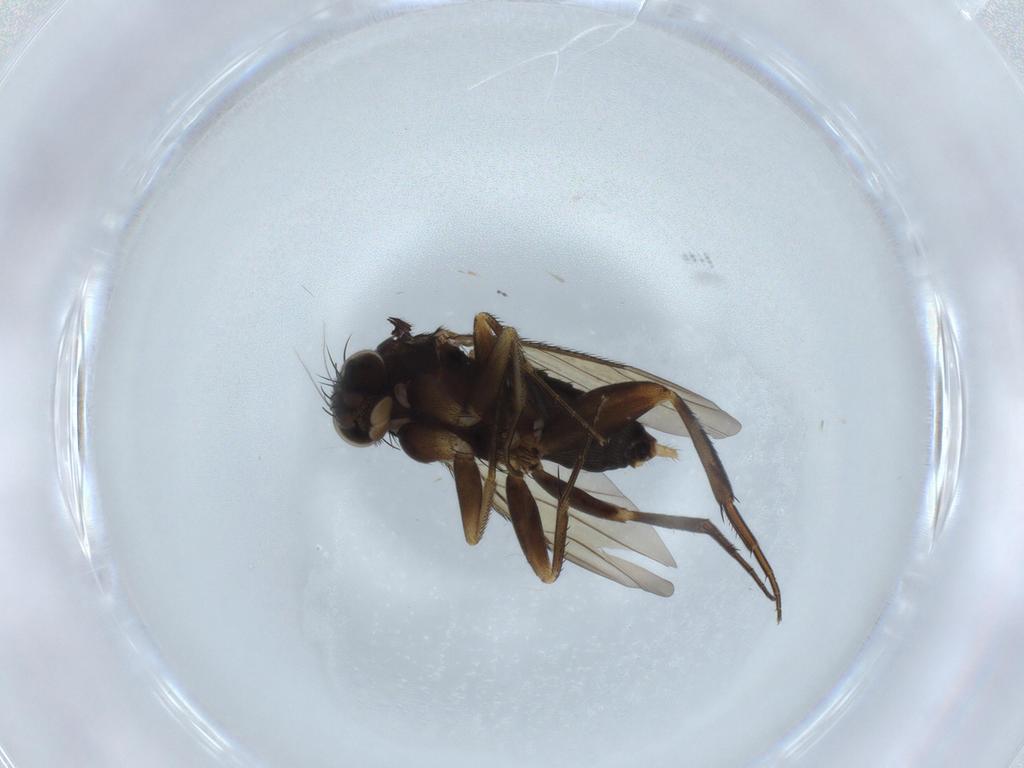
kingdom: Animalia
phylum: Arthropoda
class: Insecta
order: Diptera
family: Phoridae
